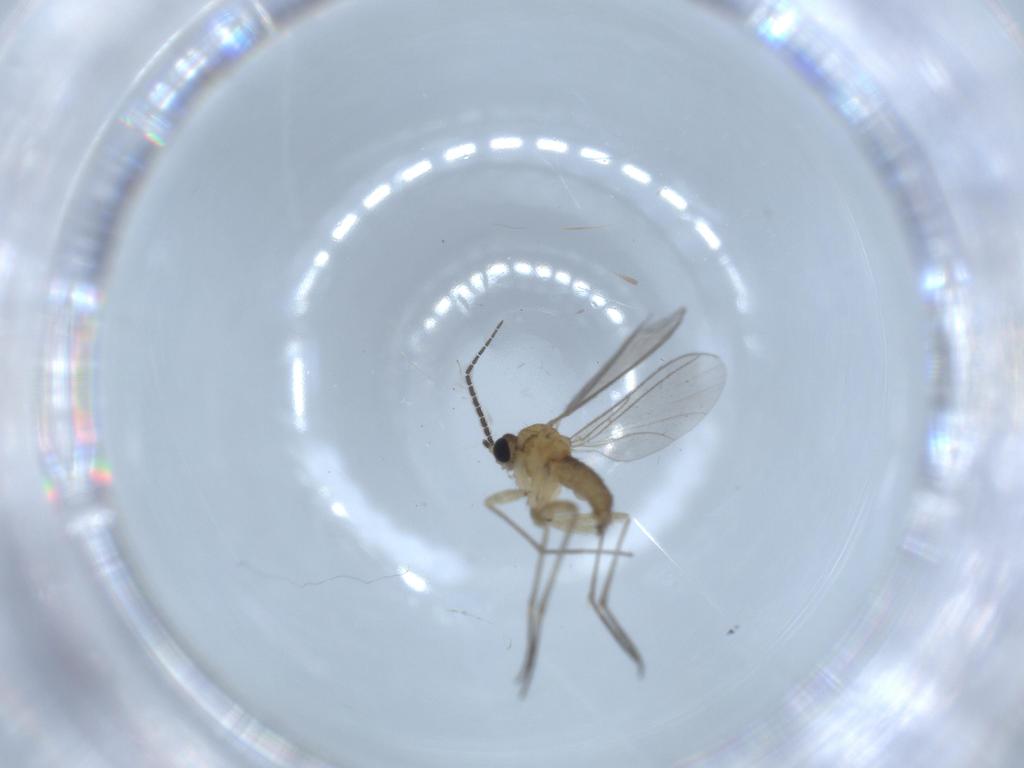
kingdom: Animalia
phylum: Arthropoda
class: Insecta
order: Diptera
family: Sciaridae
